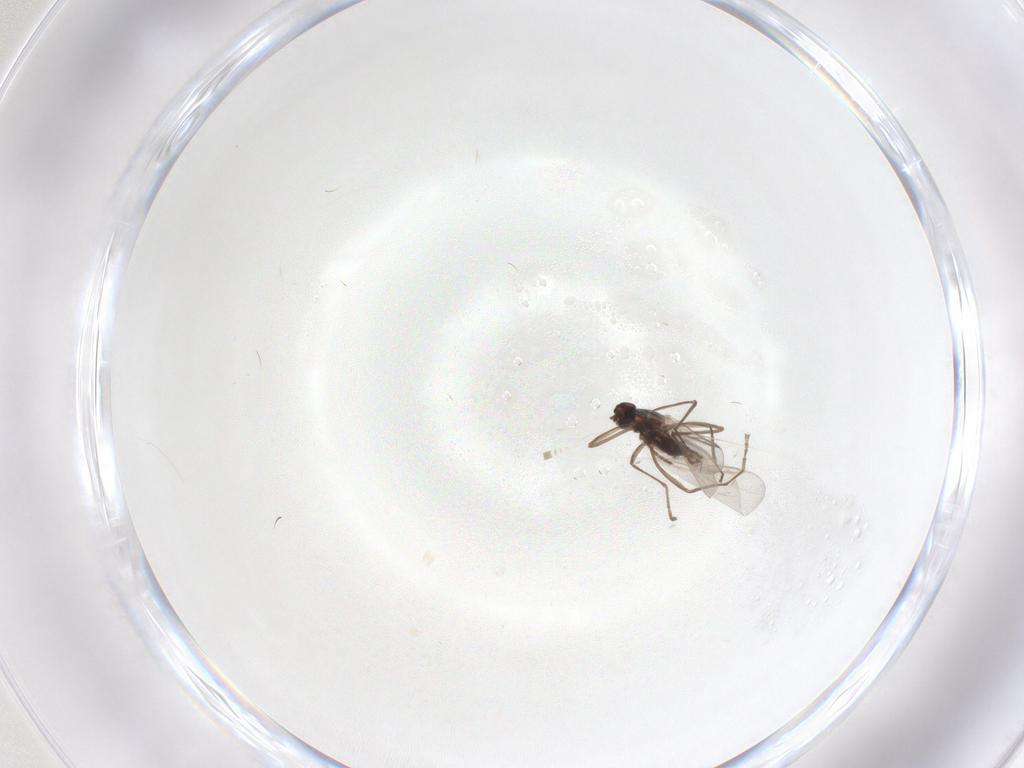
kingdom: Animalia
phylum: Arthropoda
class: Insecta
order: Diptera
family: Cecidomyiidae
